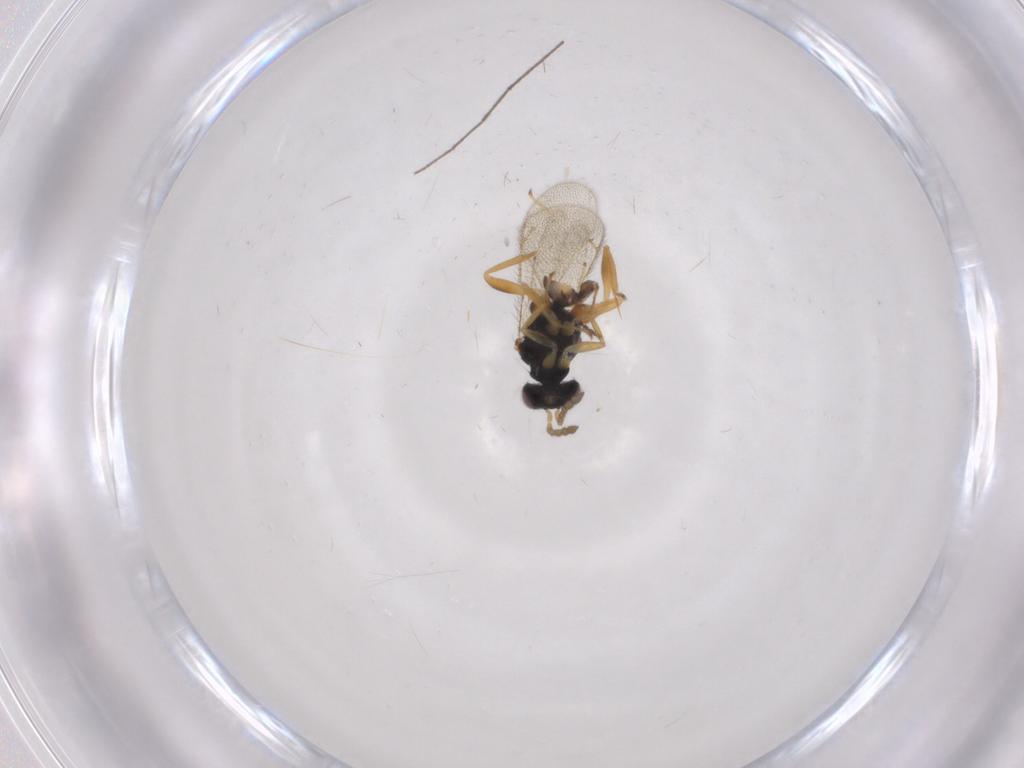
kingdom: Animalia
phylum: Arthropoda
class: Insecta
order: Hymenoptera
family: Eulophidae
